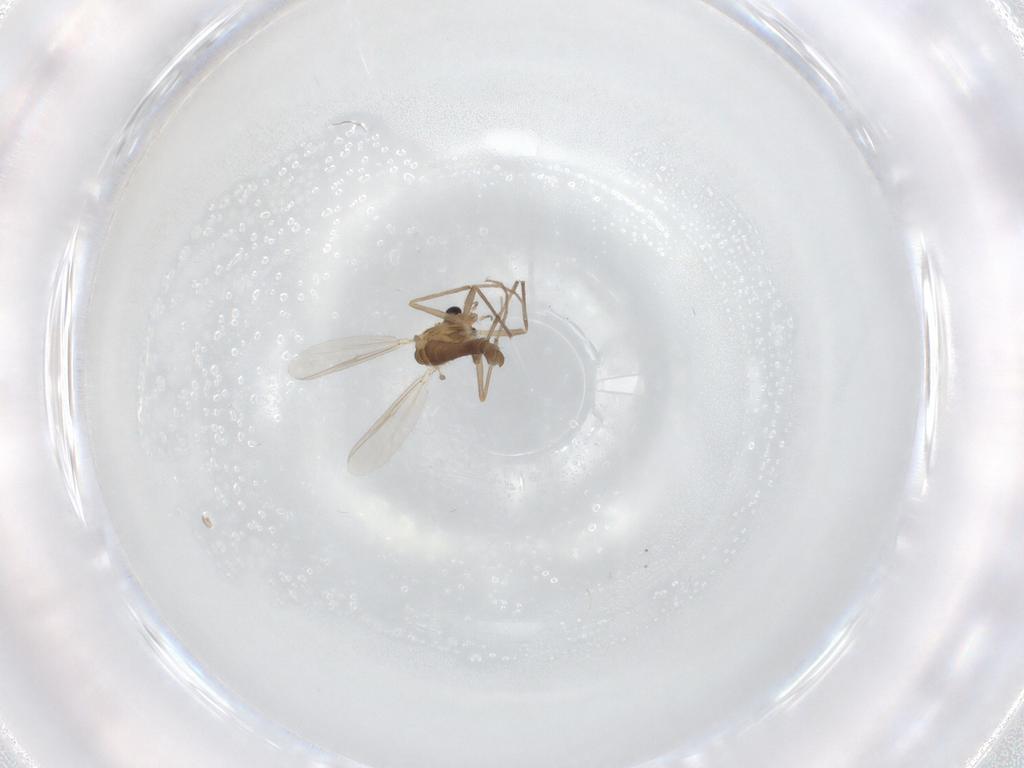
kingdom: Animalia
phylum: Arthropoda
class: Insecta
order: Diptera
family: Chironomidae
